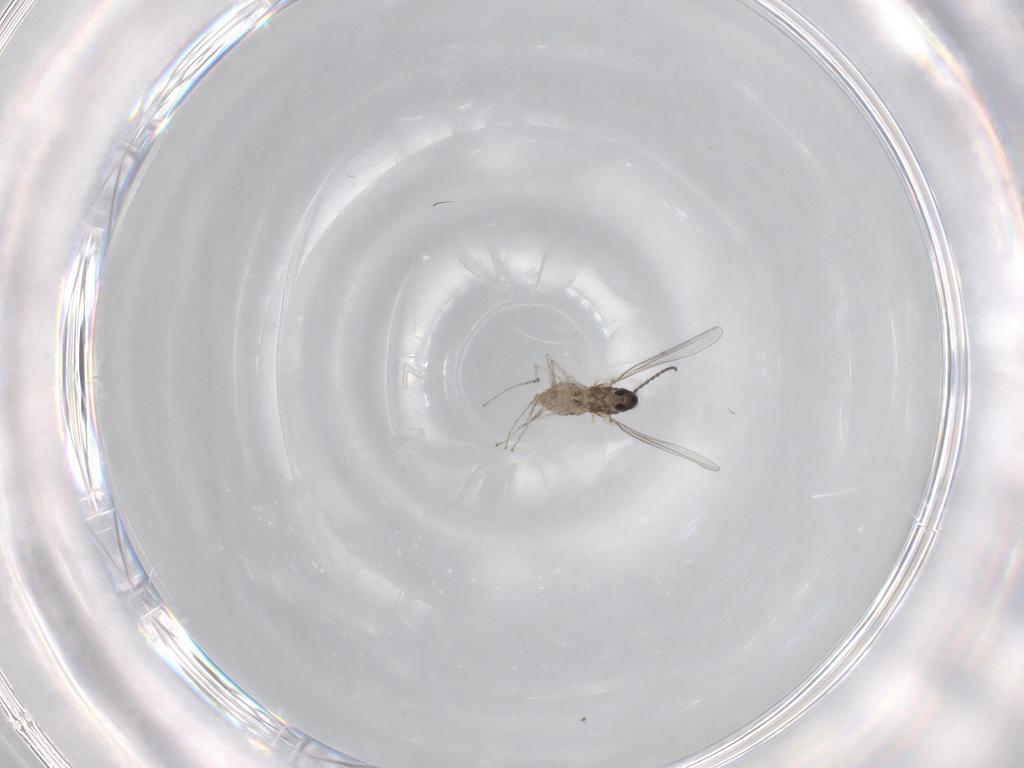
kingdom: Animalia
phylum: Arthropoda
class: Insecta
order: Diptera
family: Cecidomyiidae
